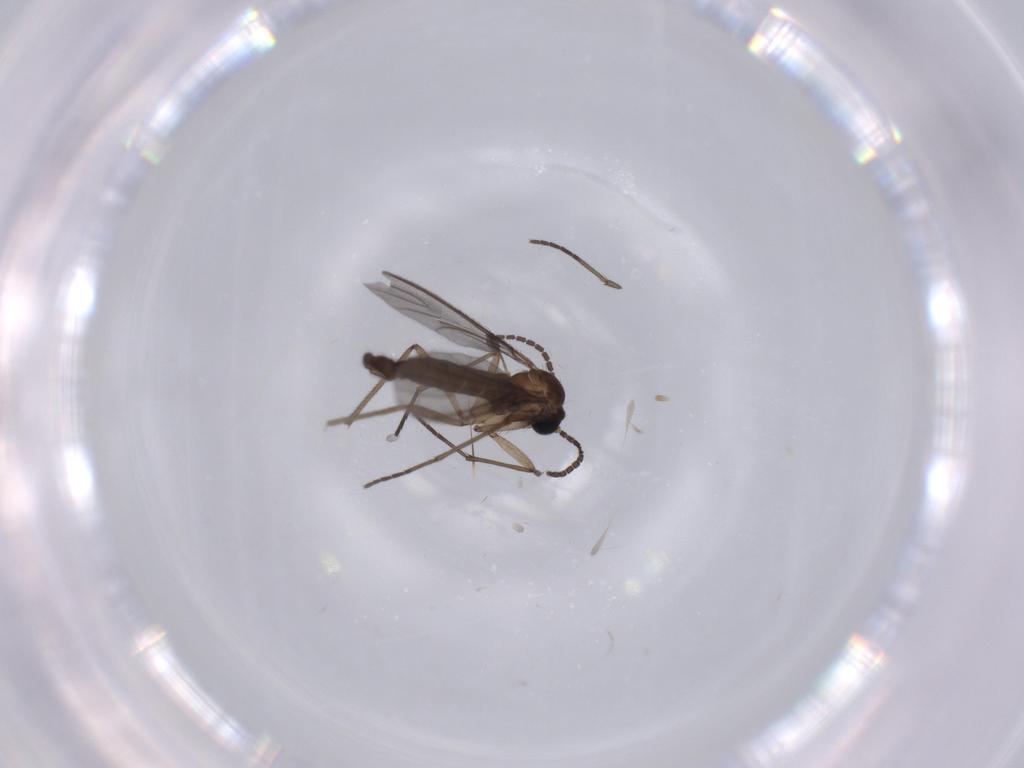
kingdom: Animalia
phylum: Arthropoda
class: Insecta
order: Diptera
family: Sciaridae
